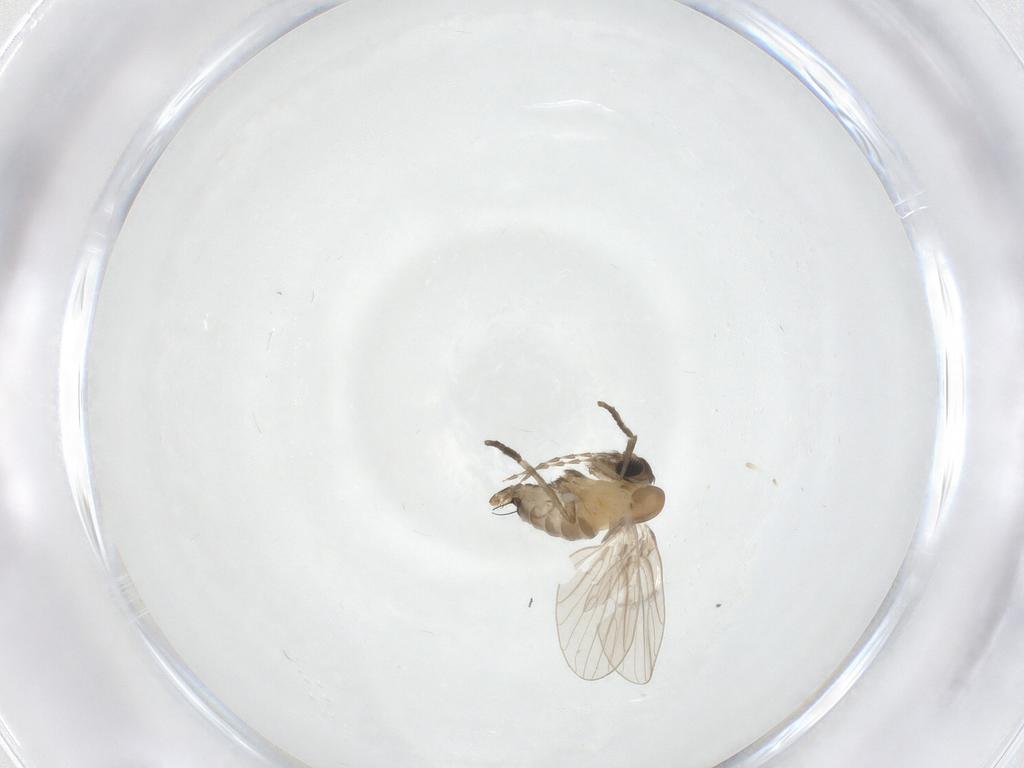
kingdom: Animalia
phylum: Arthropoda
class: Insecta
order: Diptera
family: Psychodidae
